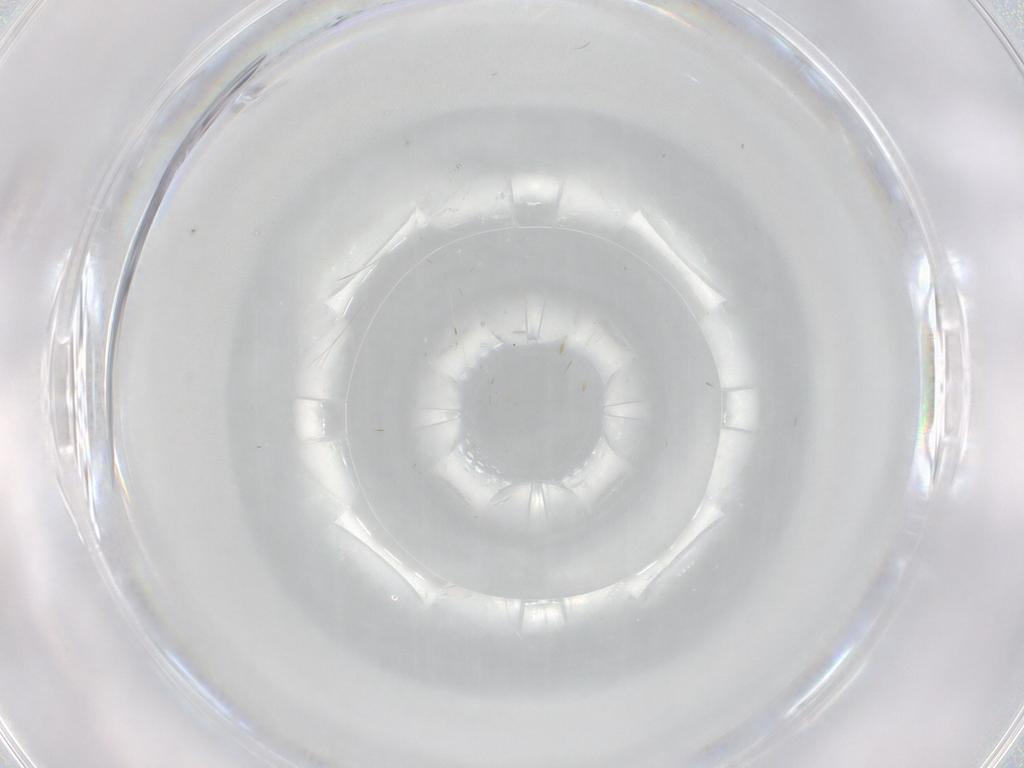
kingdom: Animalia
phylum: Arthropoda
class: Insecta
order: Diptera
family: Cecidomyiidae
